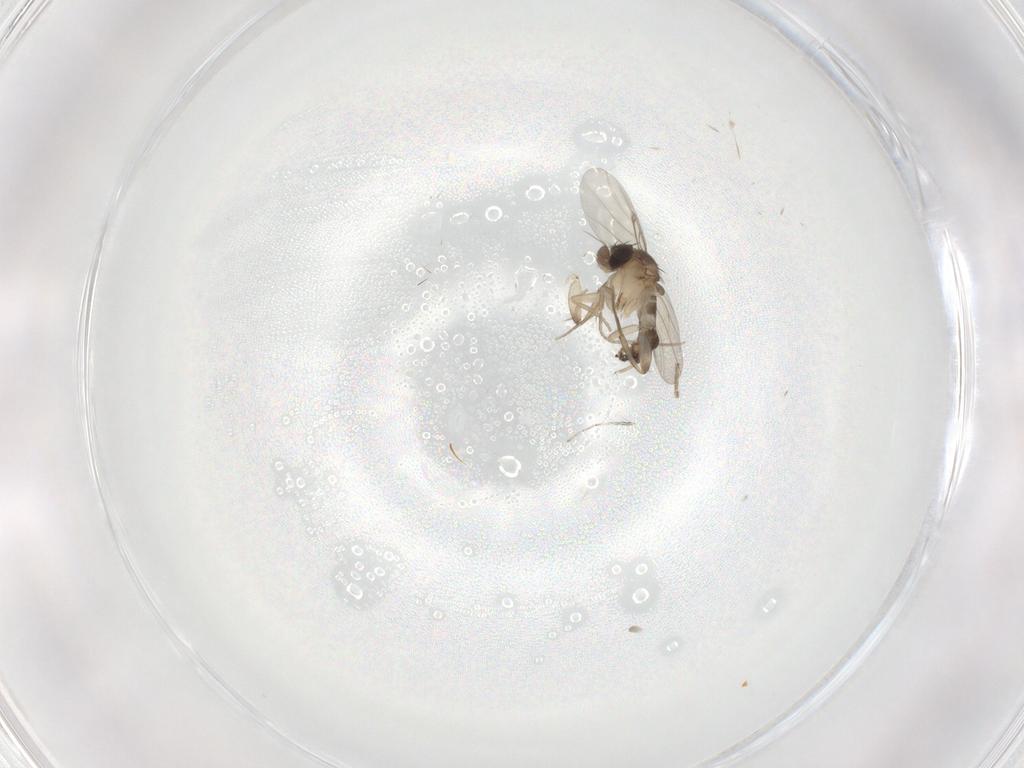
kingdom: Animalia
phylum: Arthropoda
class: Insecta
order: Diptera
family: Phoridae
